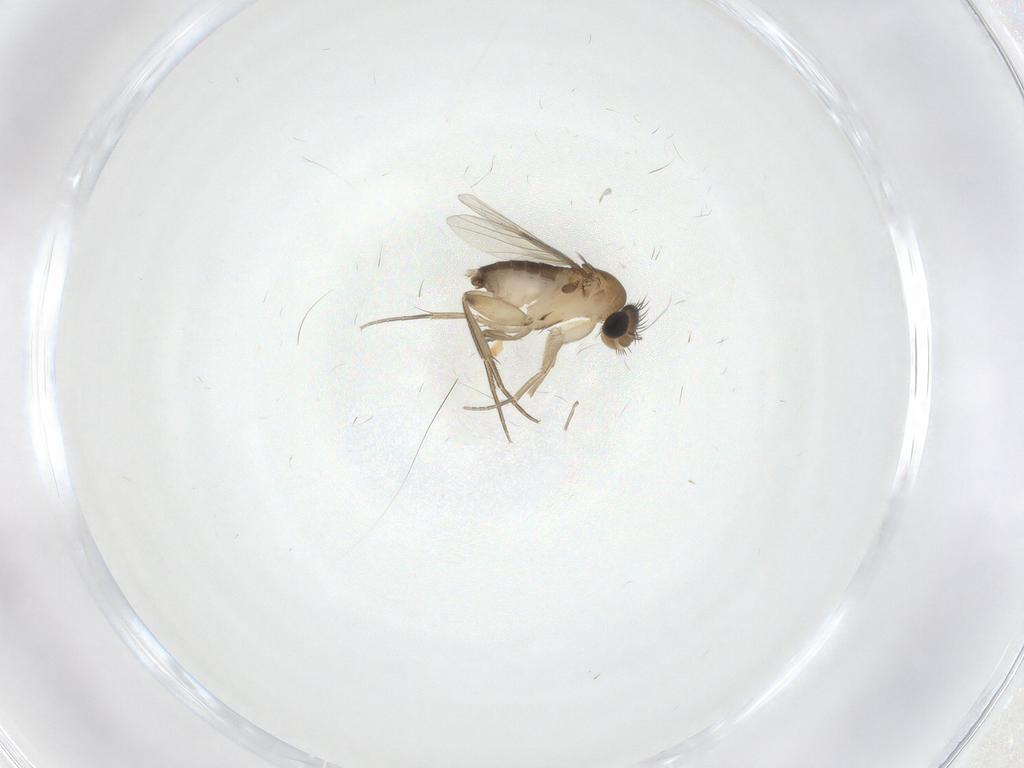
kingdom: Animalia
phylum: Arthropoda
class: Insecta
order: Diptera
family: Phoridae
